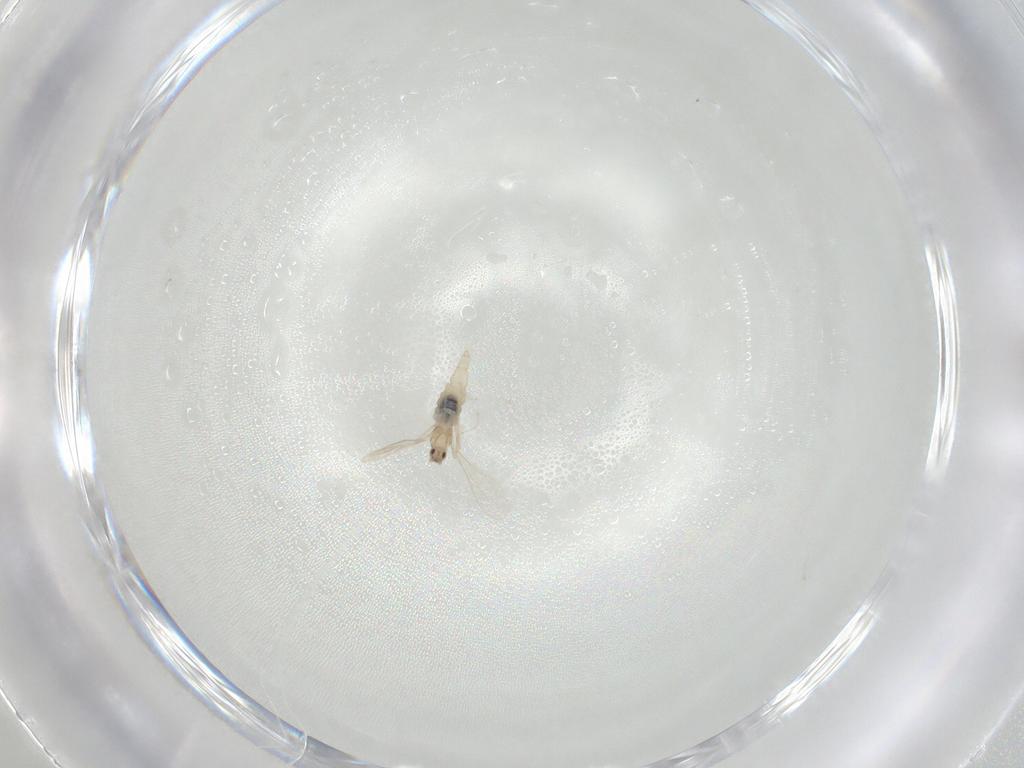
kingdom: Animalia
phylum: Arthropoda
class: Insecta
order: Diptera
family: Cecidomyiidae
